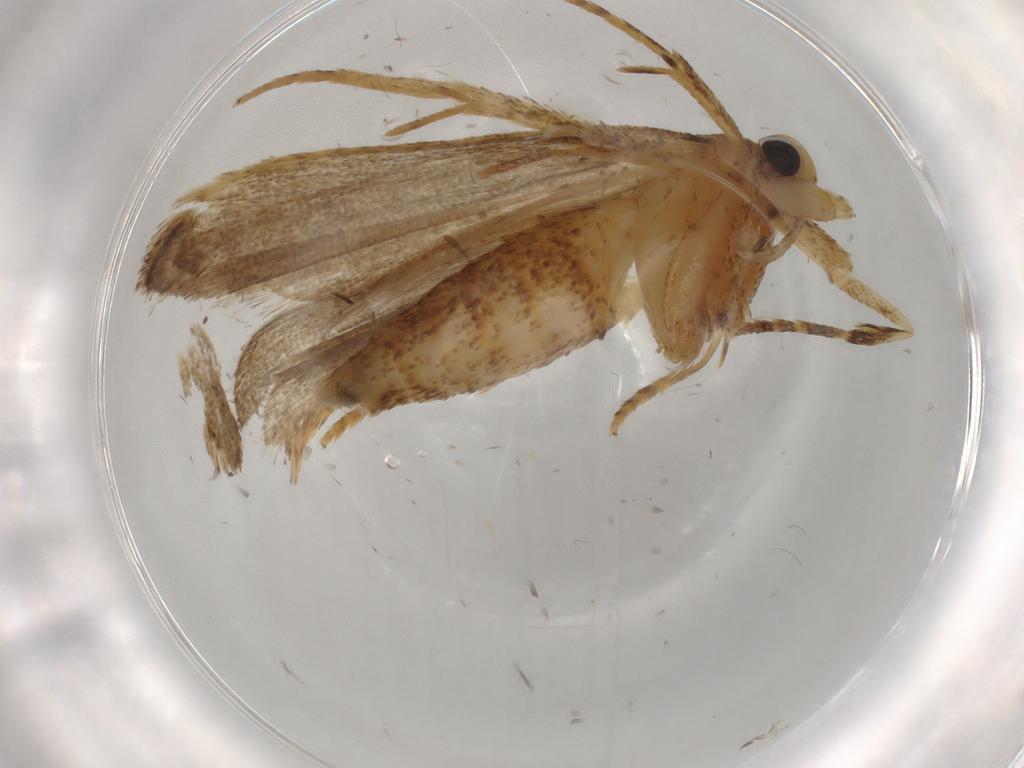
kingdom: Animalia
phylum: Arthropoda
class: Insecta
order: Lepidoptera
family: Autostichidae
